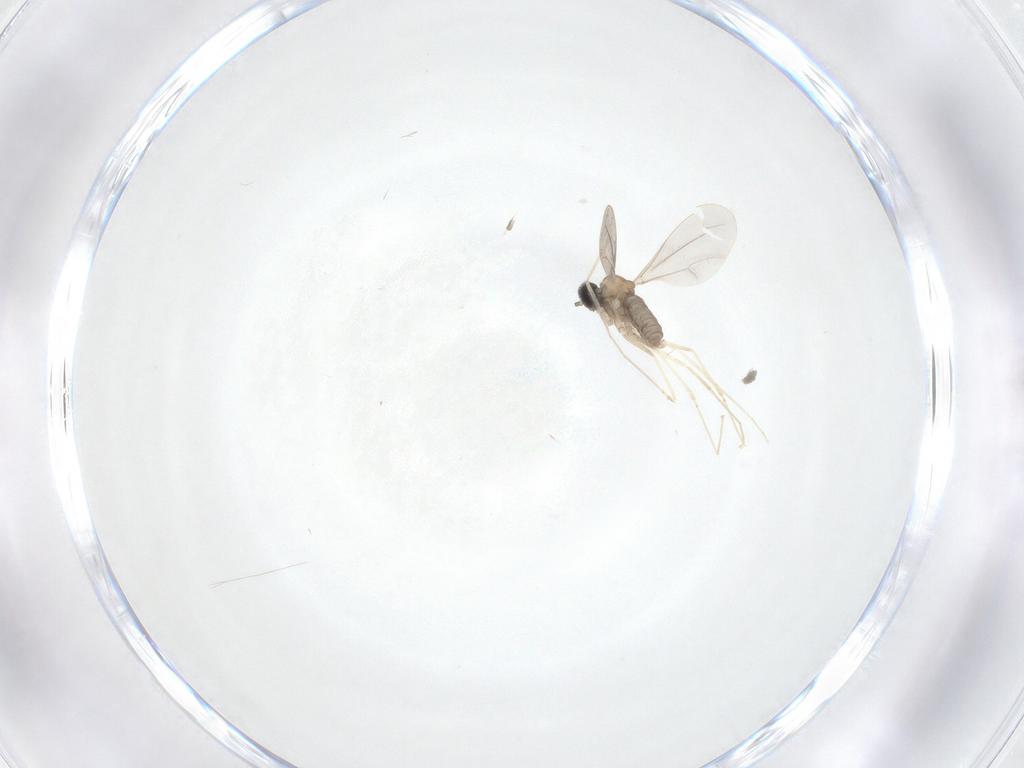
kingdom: Animalia
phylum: Arthropoda
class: Insecta
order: Diptera
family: Cecidomyiidae
